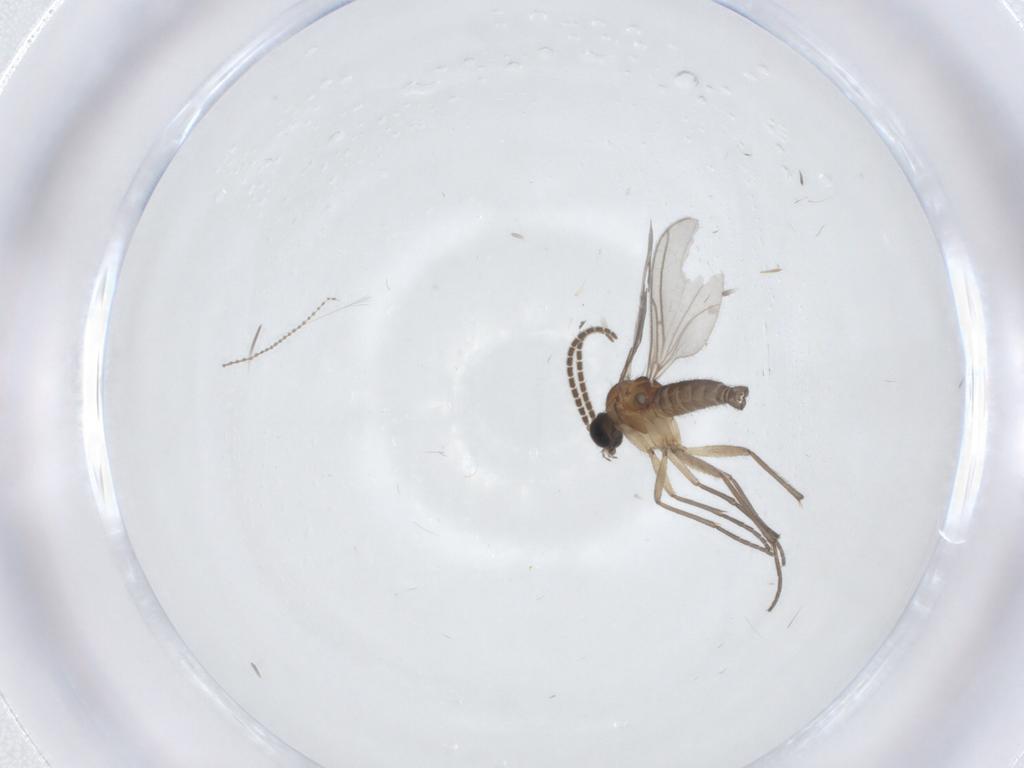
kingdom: Animalia
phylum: Arthropoda
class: Insecta
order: Diptera
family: Sciaridae
